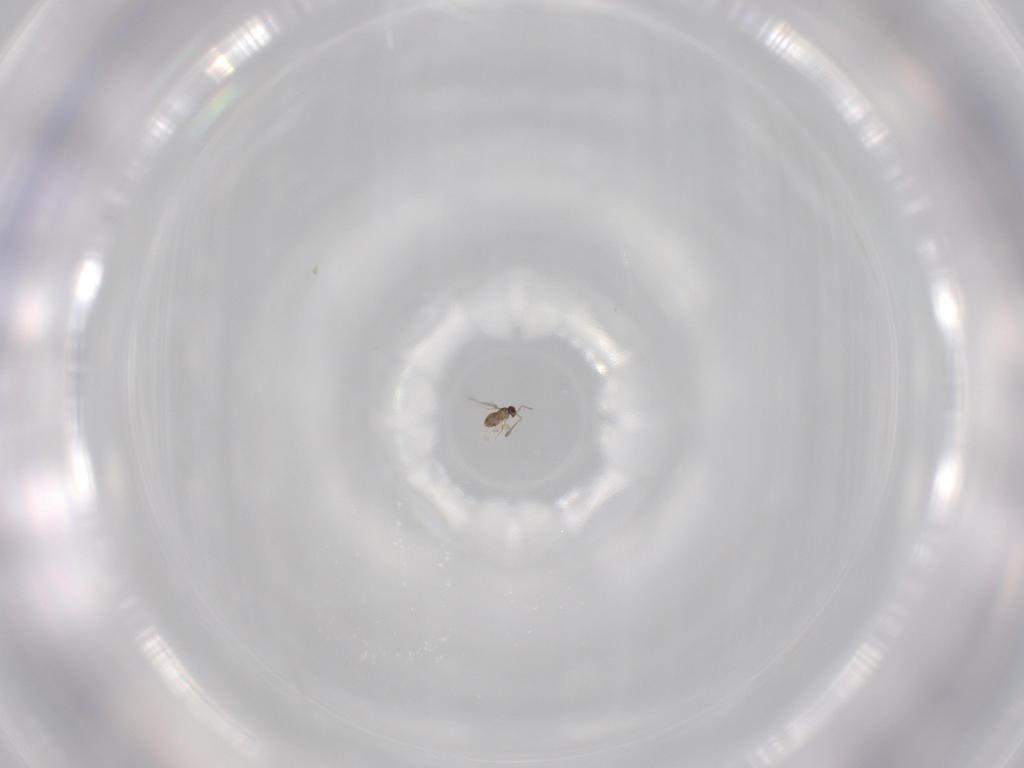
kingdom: Animalia
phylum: Arthropoda
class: Insecta
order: Hymenoptera
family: Mymaridae
